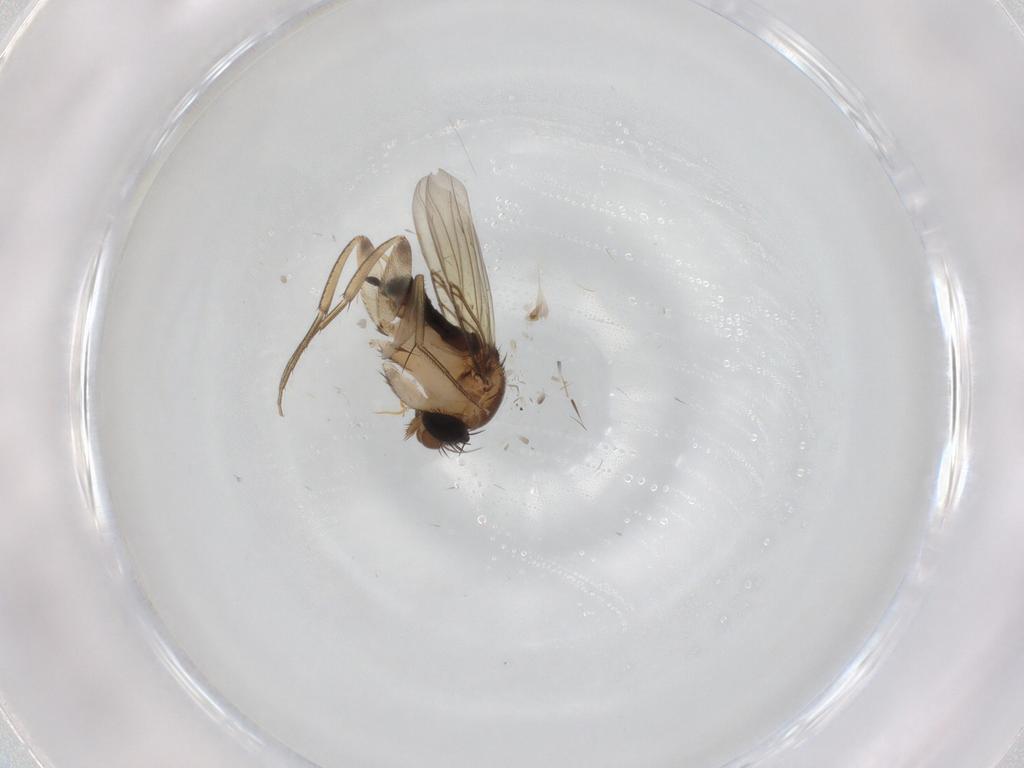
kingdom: Animalia
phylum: Arthropoda
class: Insecta
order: Diptera
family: Phoridae
